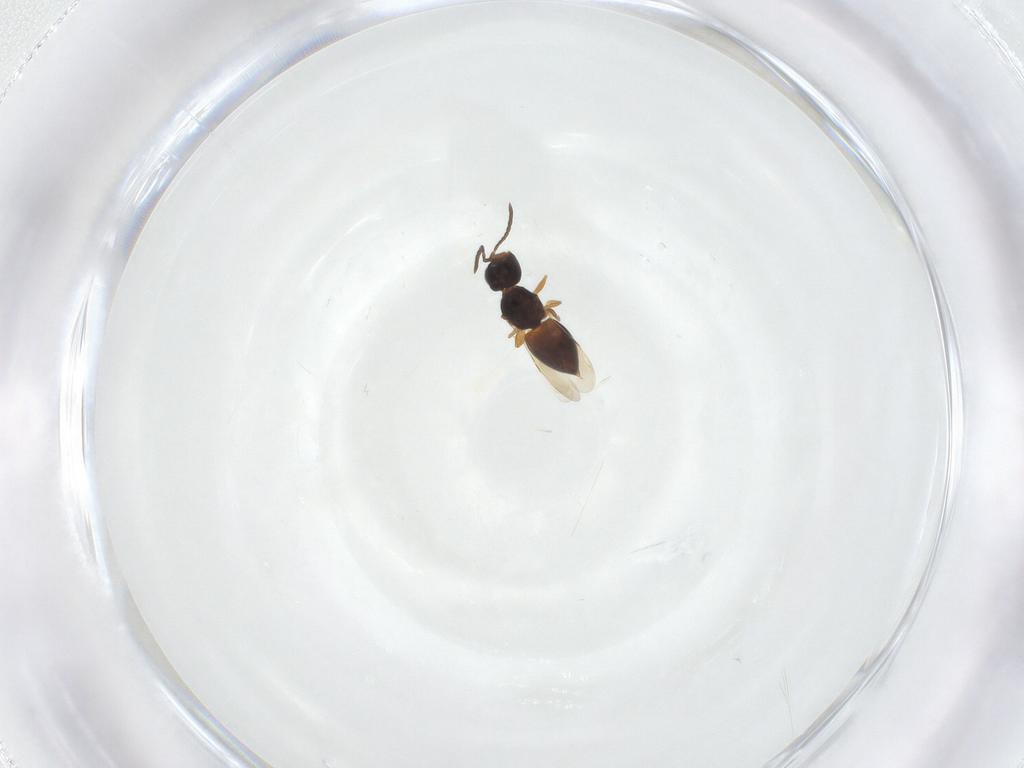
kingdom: Animalia
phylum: Arthropoda
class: Insecta
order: Hymenoptera
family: Ceraphronidae
